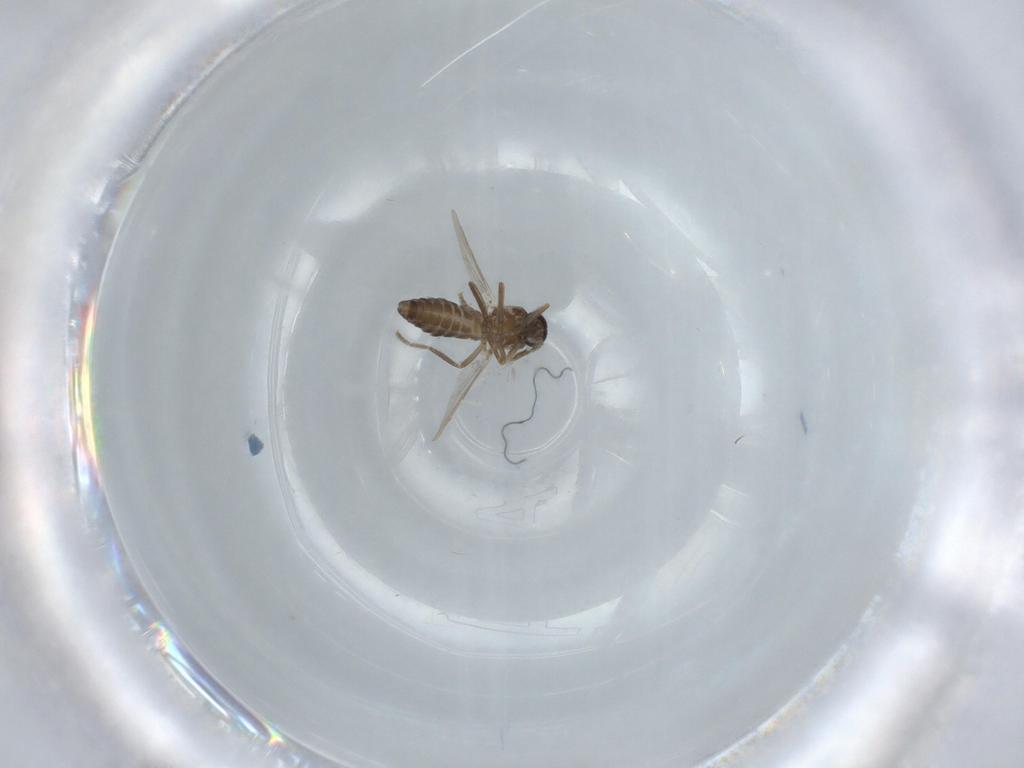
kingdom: Animalia
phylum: Arthropoda
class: Insecta
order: Diptera
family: Ceratopogonidae
